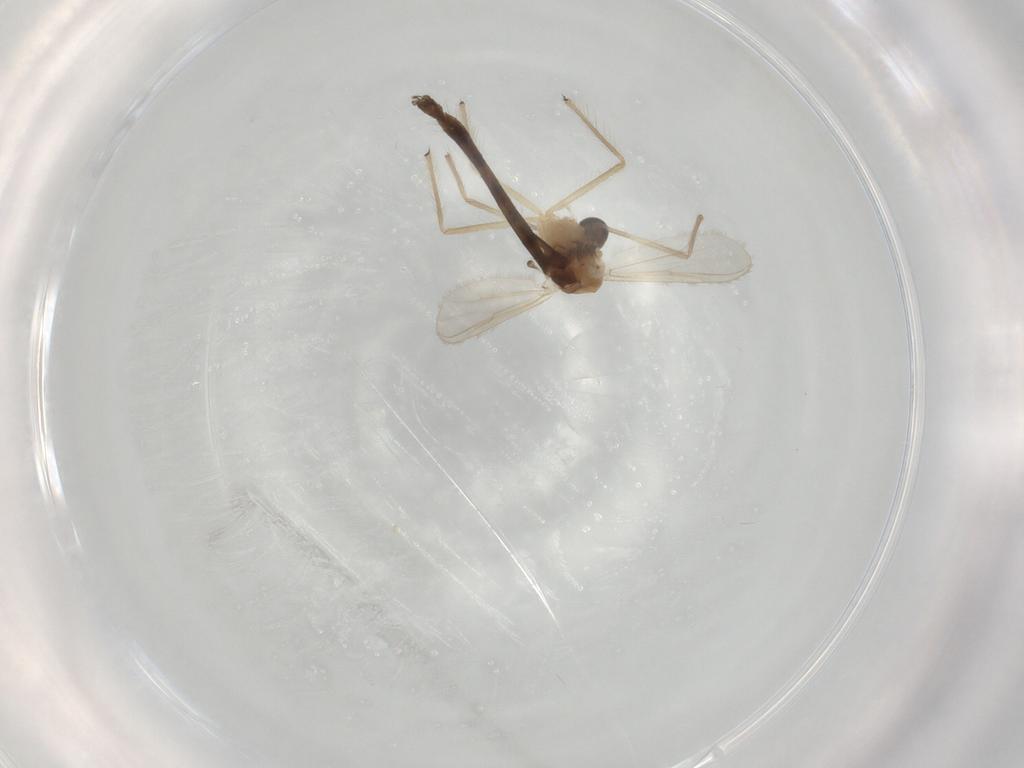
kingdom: Animalia
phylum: Arthropoda
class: Insecta
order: Diptera
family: Chironomidae
